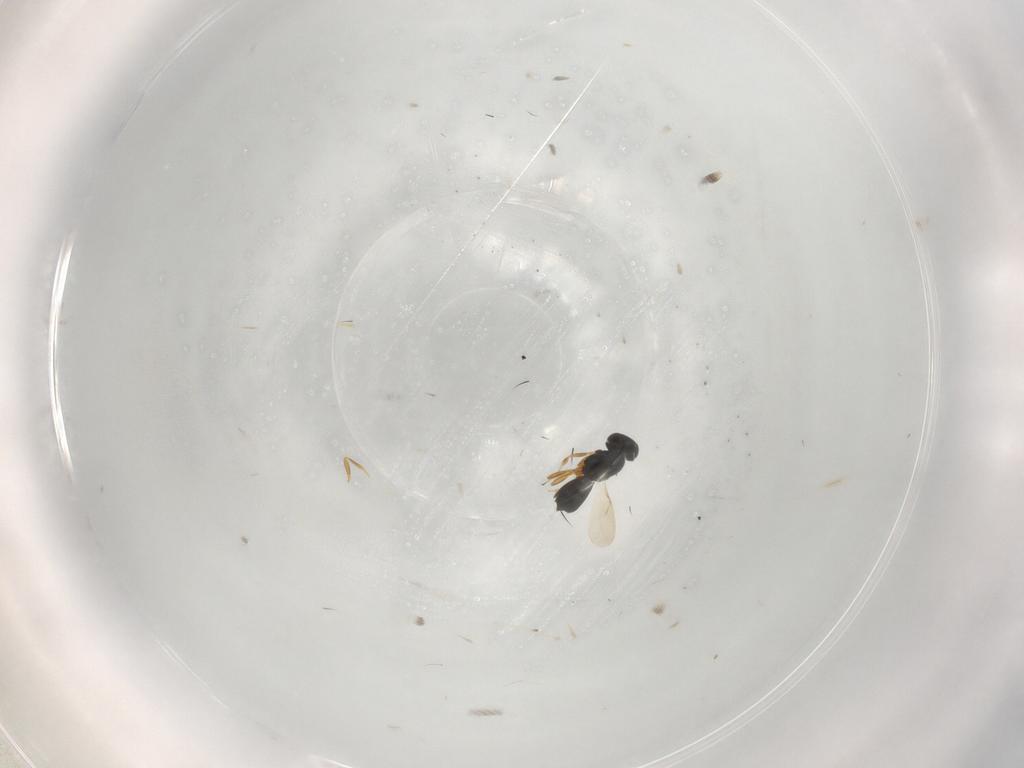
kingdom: Animalia
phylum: Arthropoda
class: Insecta
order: Hymenoptera
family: Scelionidae
